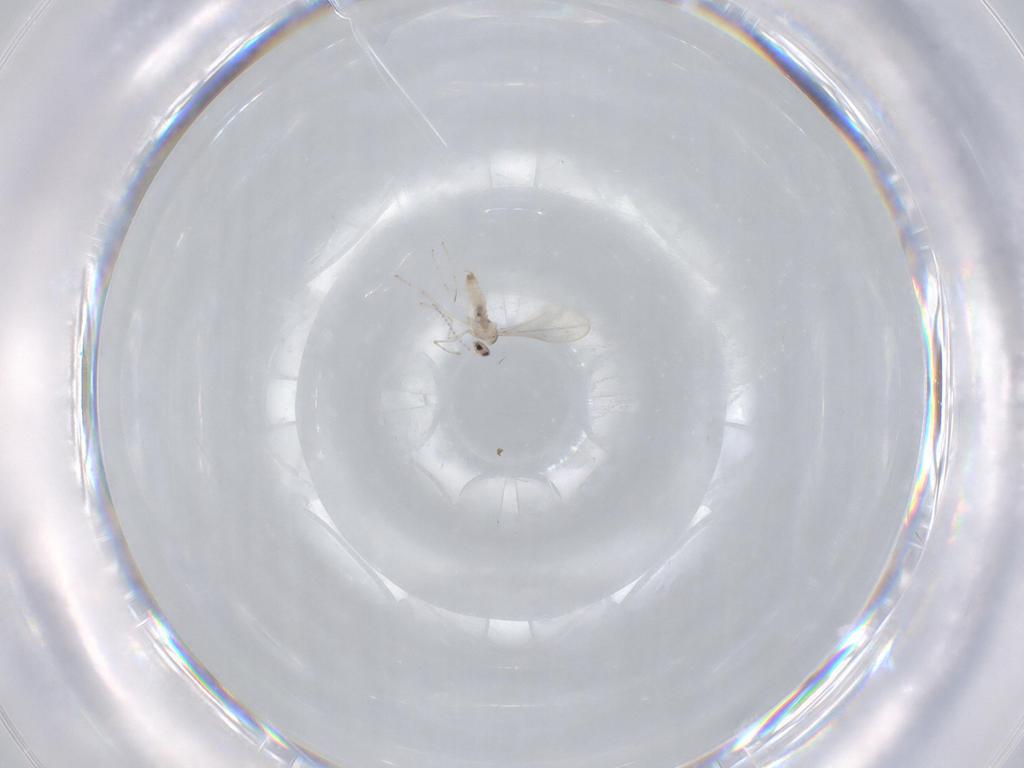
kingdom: Animalia
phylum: Arthropoda
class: Insecta
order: Diptera
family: Cecidomyiidae
